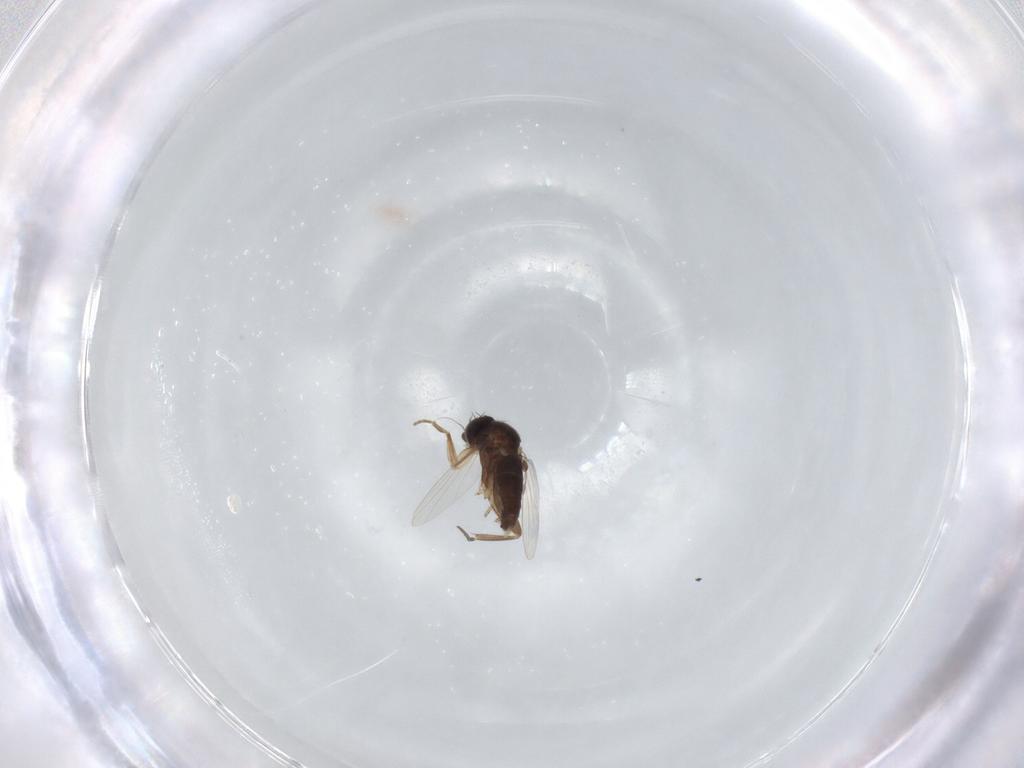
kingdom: Animalia
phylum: Arthropoda
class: Insecta
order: Diptera
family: Phoridae
